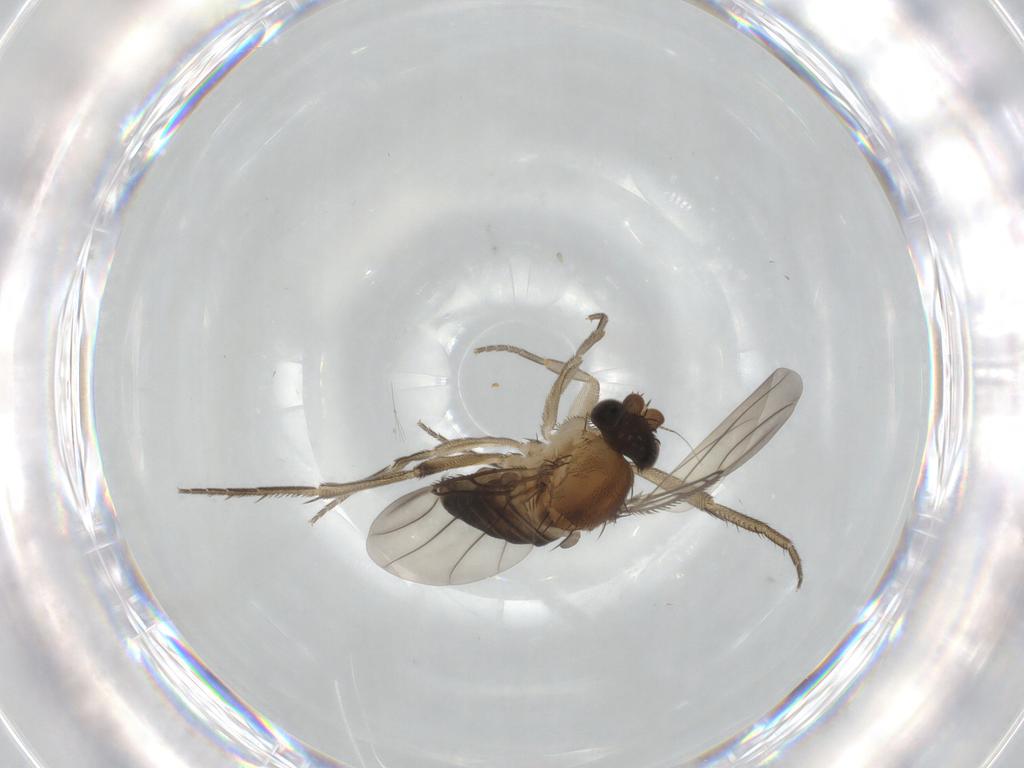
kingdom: Animalia
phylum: Arthropoda
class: Insecta
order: Diptera
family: Phoridae
